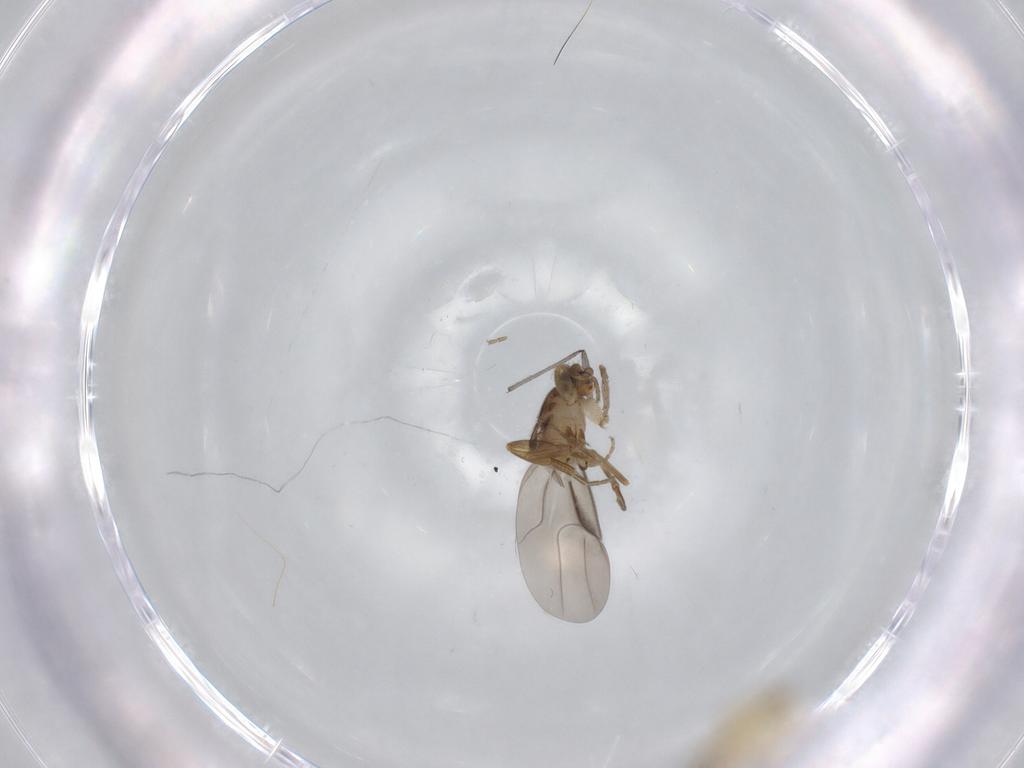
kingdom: Animalia
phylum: Arthropoda
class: Insecta
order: Diptera
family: Phoridae
